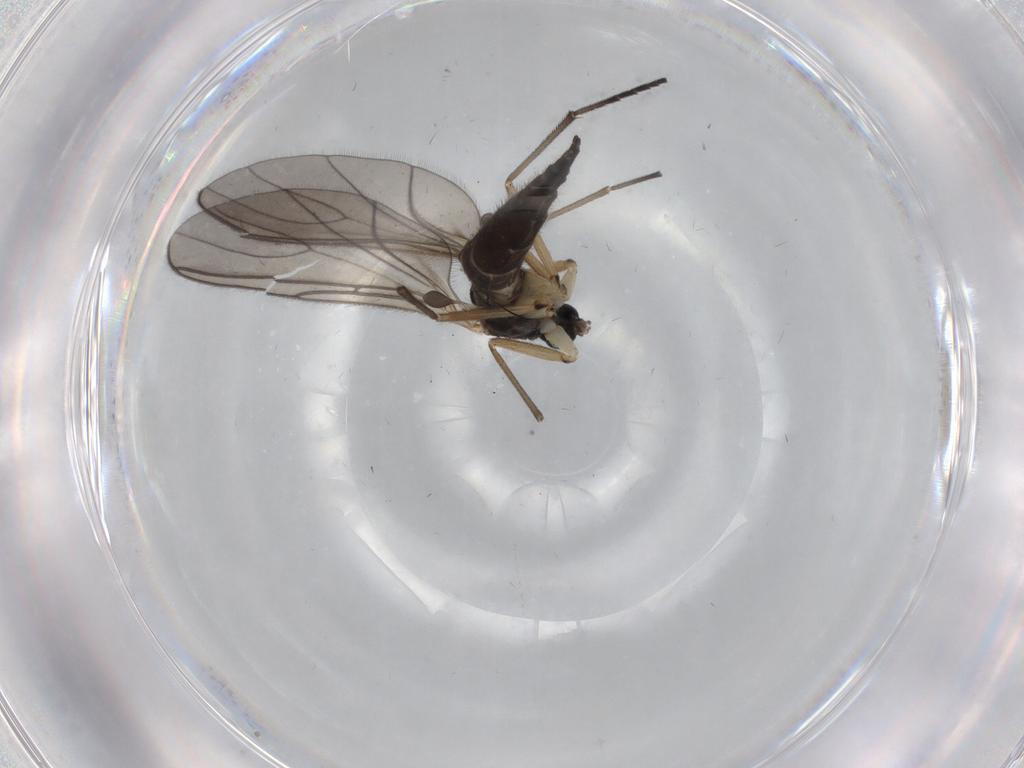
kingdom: Animalia
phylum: Arthropoda
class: Insecta
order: Diptera
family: Sciaridae
